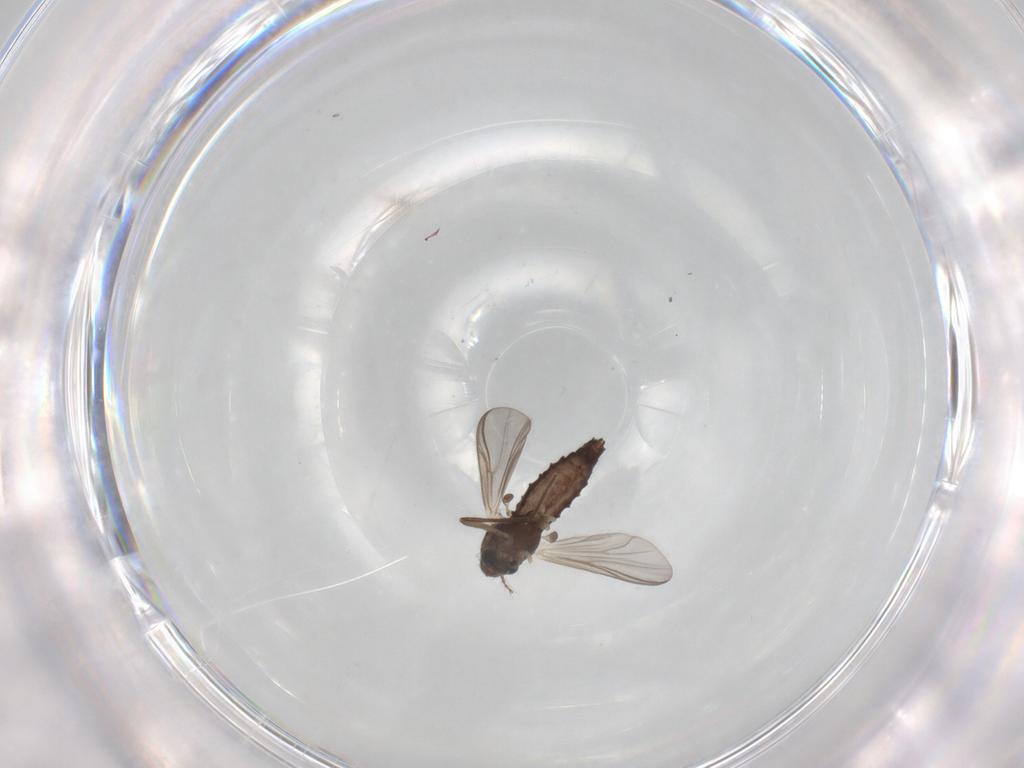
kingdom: Animalia
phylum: Arthropoda
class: Insecta
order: Diptera
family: Chironomidae
